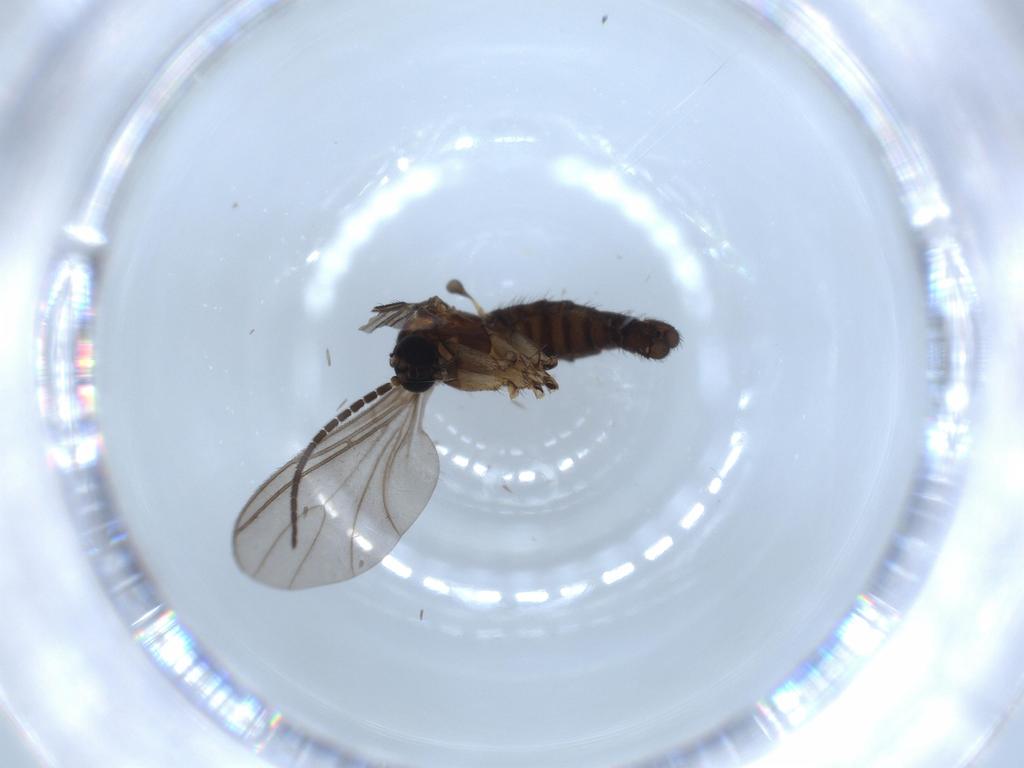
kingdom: Animalia
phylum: Arthropoda
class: Insecta
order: Diptera
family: Sciaridae
